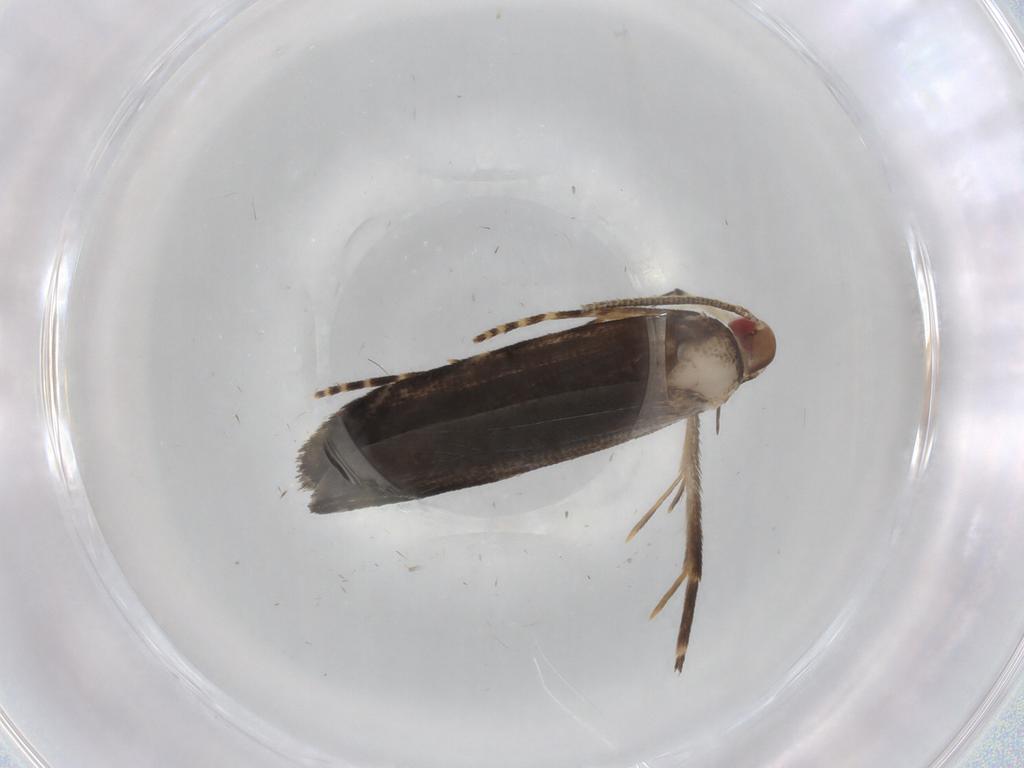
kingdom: Animalia
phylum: Arthropoda
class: Insecta
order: Lepidoptera
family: Gelechiidae
